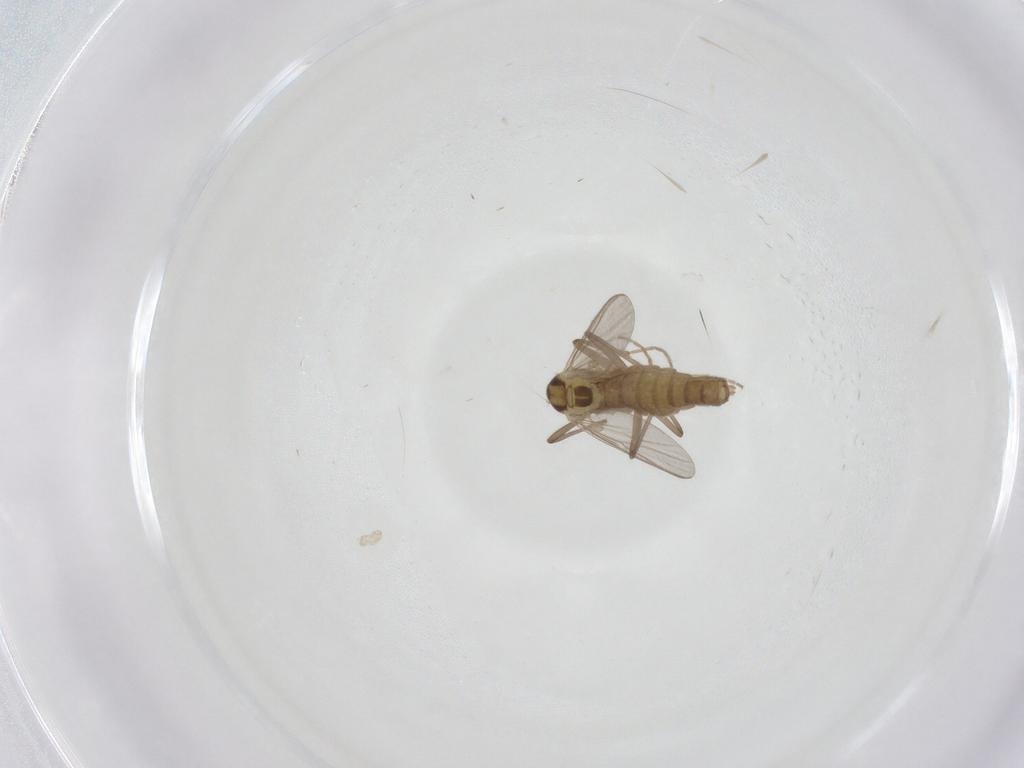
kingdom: Animalia
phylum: Arthropoda
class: Insecta
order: Diptera
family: Chironomidae
